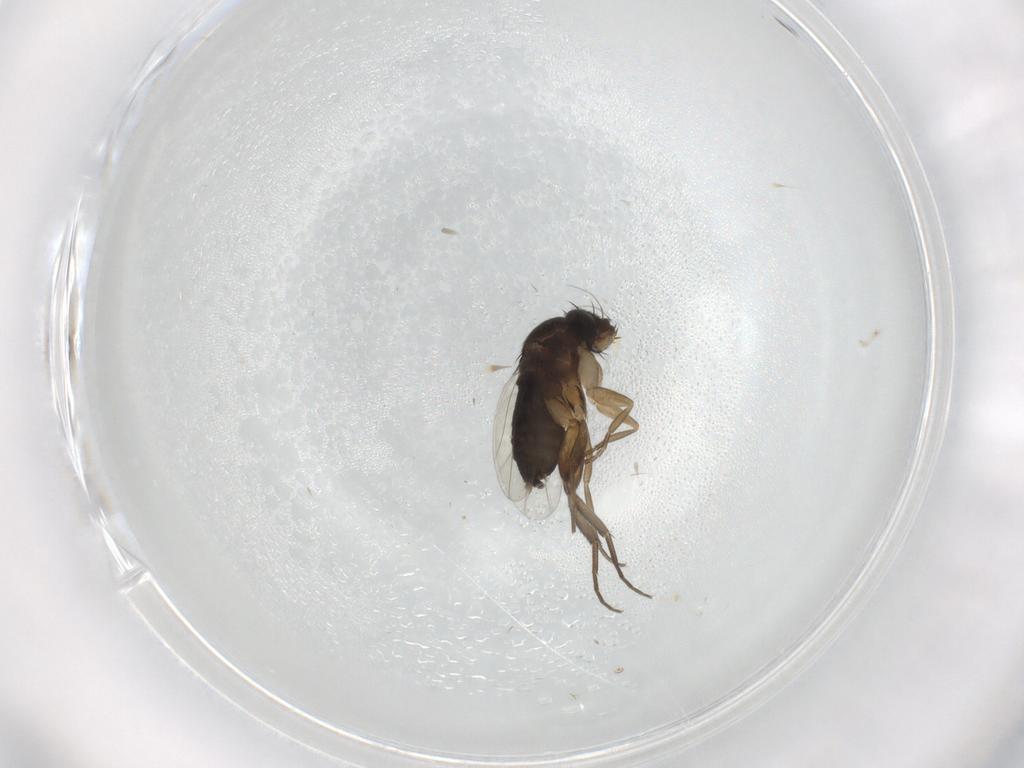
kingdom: Animalia
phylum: Arthropoda
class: Insecta
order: Diptera
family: Phoridae
